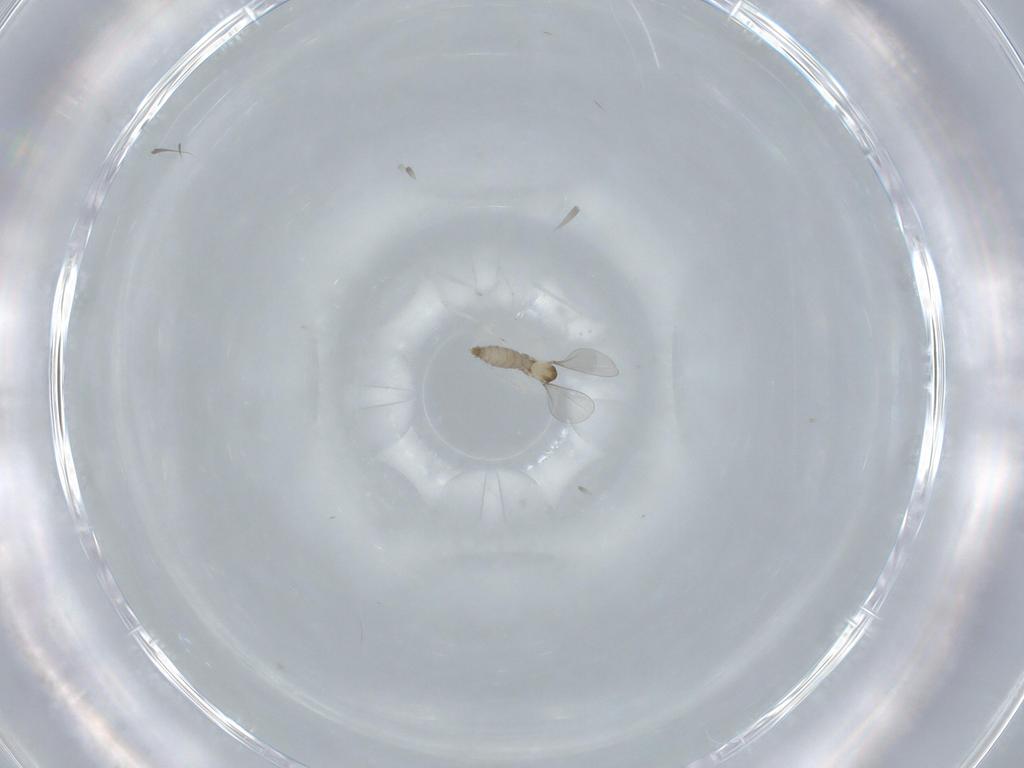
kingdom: Animalia
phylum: Arthropoda
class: Insecta
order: Diptera
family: Sciaridae
